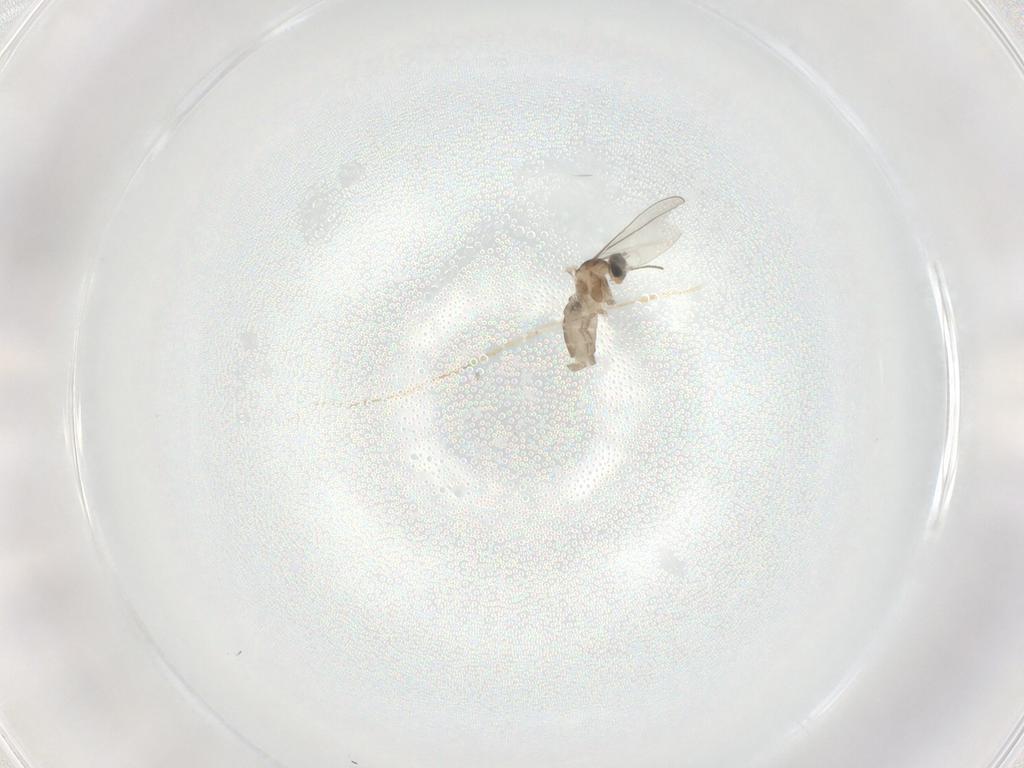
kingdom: Animalia
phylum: Arthropoda
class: Insecta
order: Diptera
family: Cecidomyiidae
